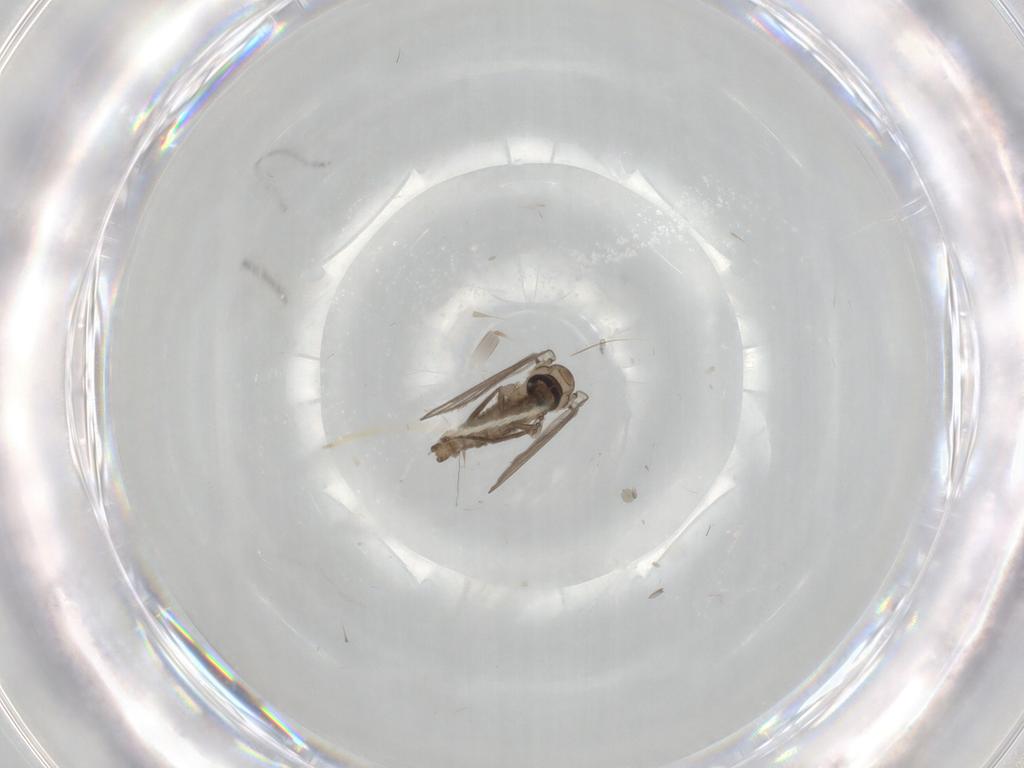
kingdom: Animalia
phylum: Arthropoda
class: Insecta
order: Diptera
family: Psychodidae
